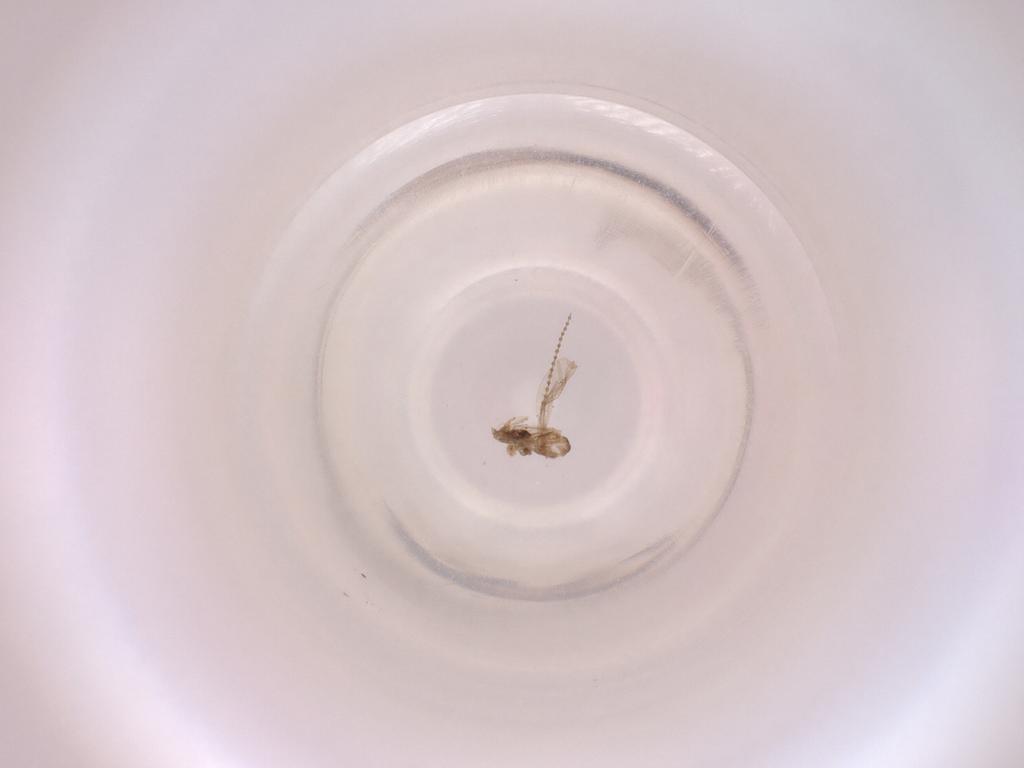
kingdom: Animalia
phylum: Arthropoda
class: Insecta
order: Diptera
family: Cecidomyiidae
